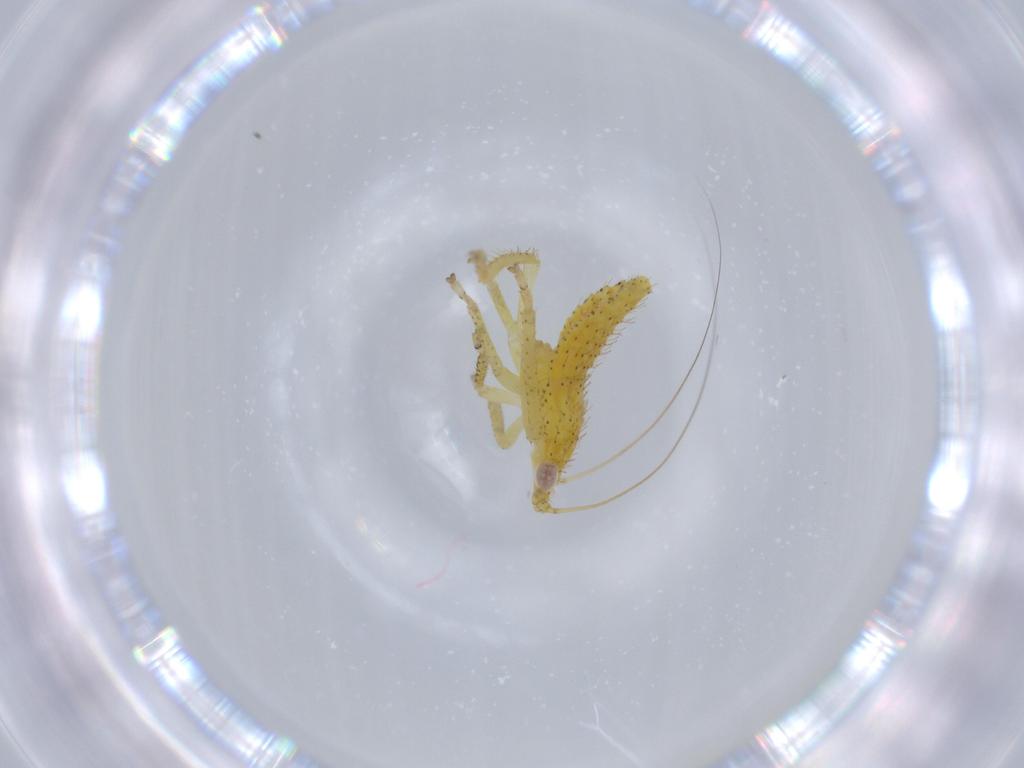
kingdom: Animalia
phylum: Arthropoda
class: Insecta
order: Hemiptera
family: Cicadellidae
